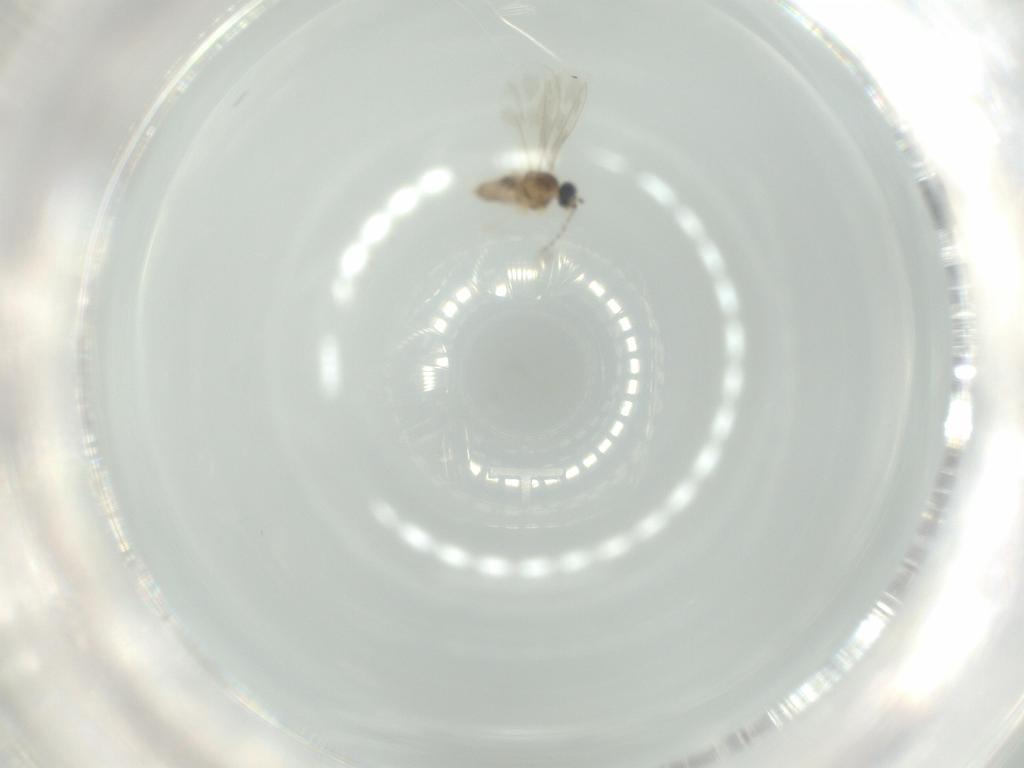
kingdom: Animalia
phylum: Arthropoda
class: Insecta
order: Diptera
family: Cecidomyiidae
